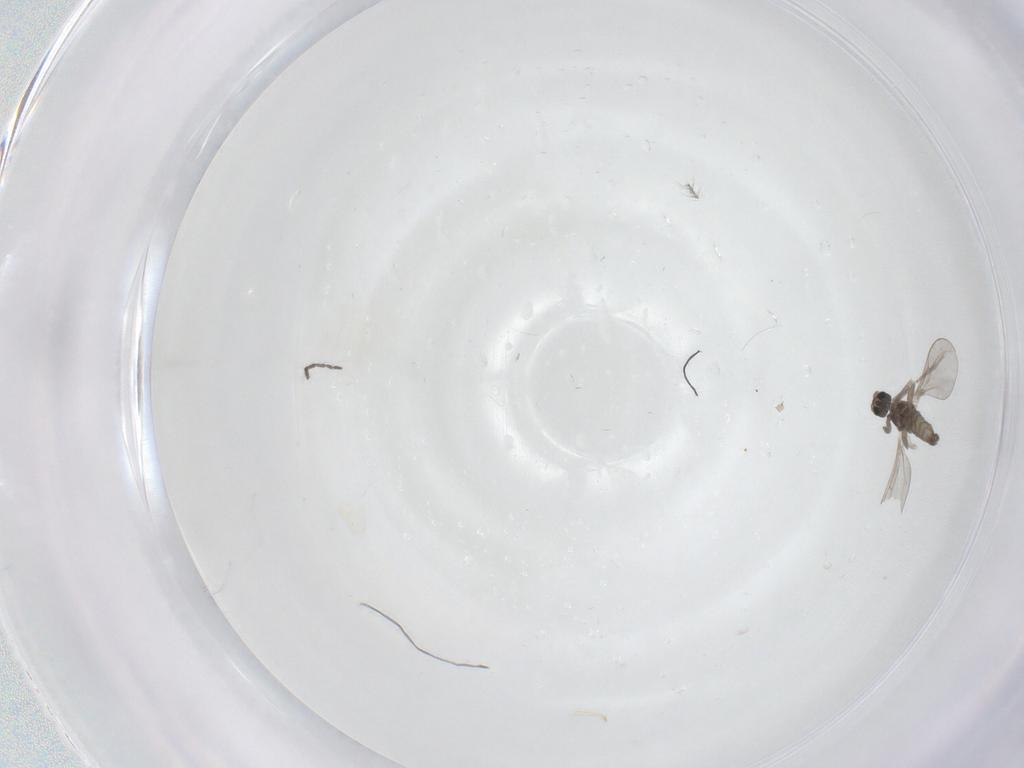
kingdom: Animalia
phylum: Arthropoda
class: Insecta
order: Diptera
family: Cecidomyiidae
